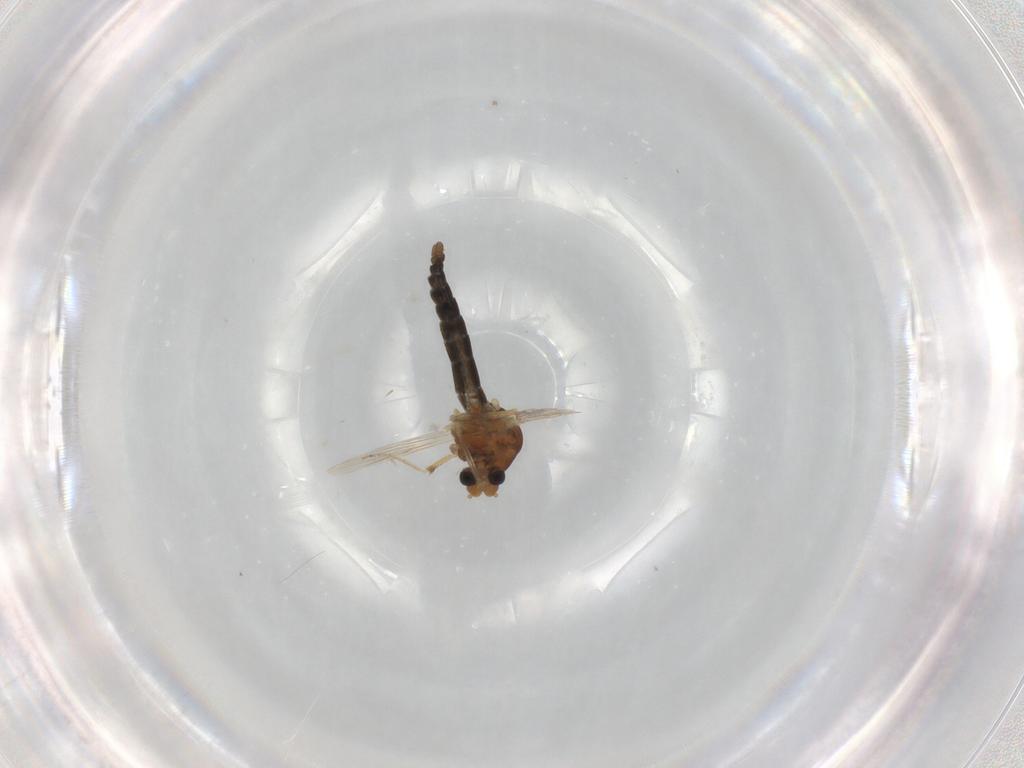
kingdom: Animalia
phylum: Arthropoda
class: Insecta
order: Diptera
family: Ceratopogonidae
